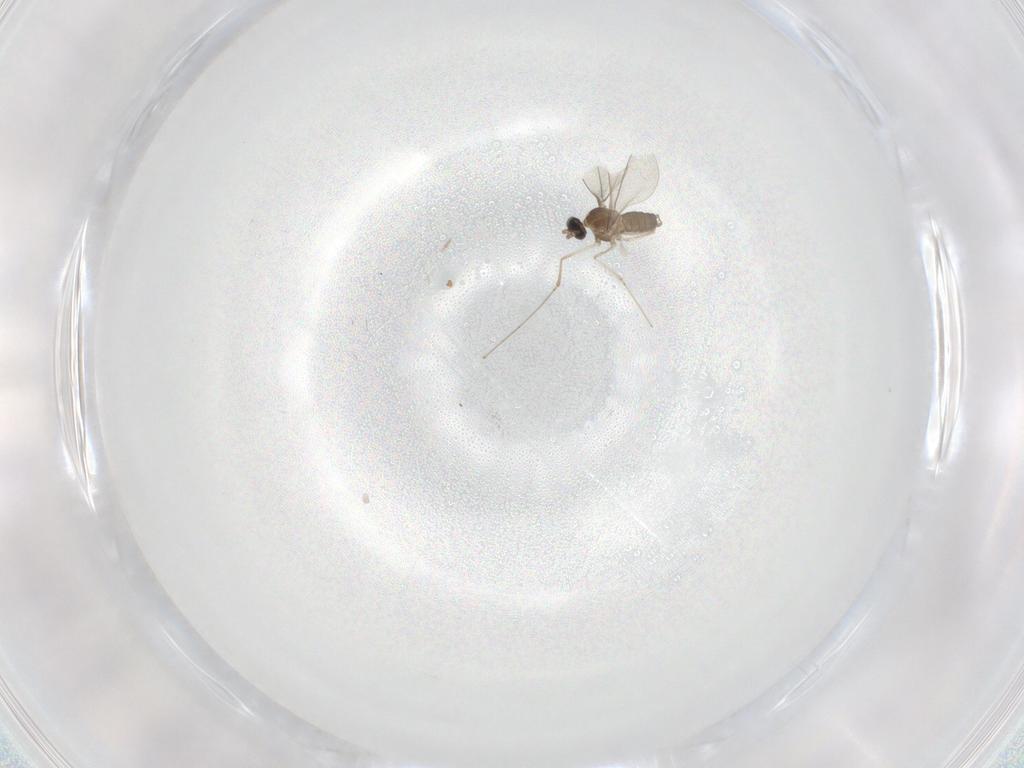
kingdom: Animalia
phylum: Arthropoda
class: Insecta
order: Diptera
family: Cecidomyiidae
